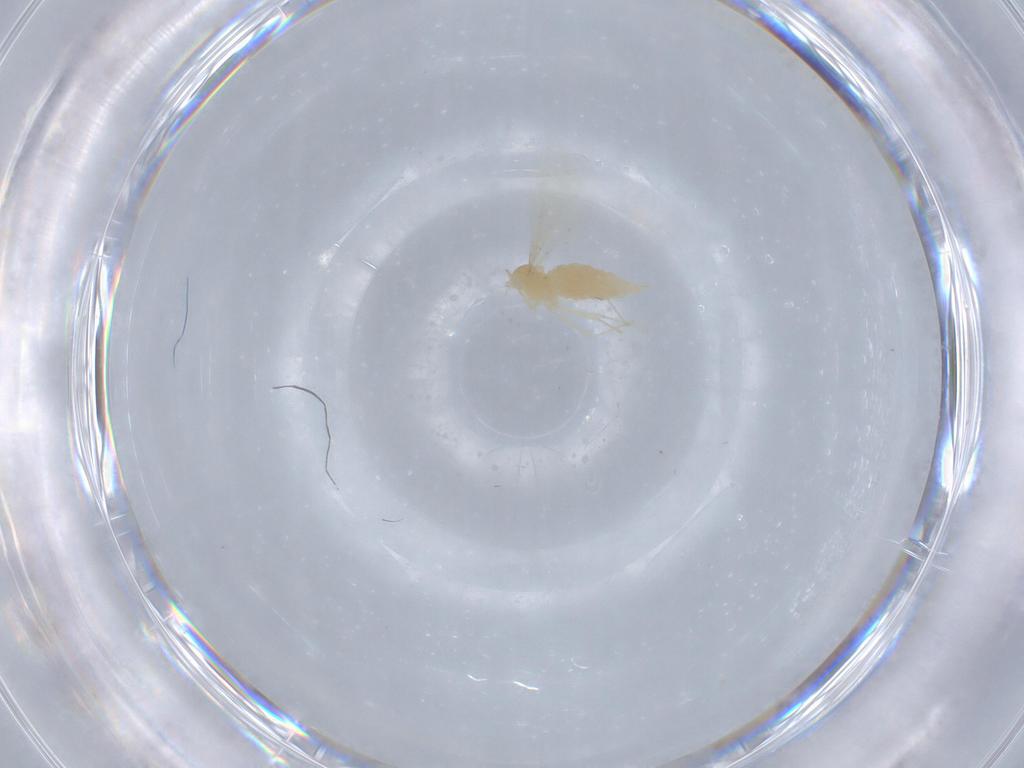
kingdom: Animalia
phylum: Arthropoda
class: Insecta
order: Diptera
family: Cecidomyiidae
